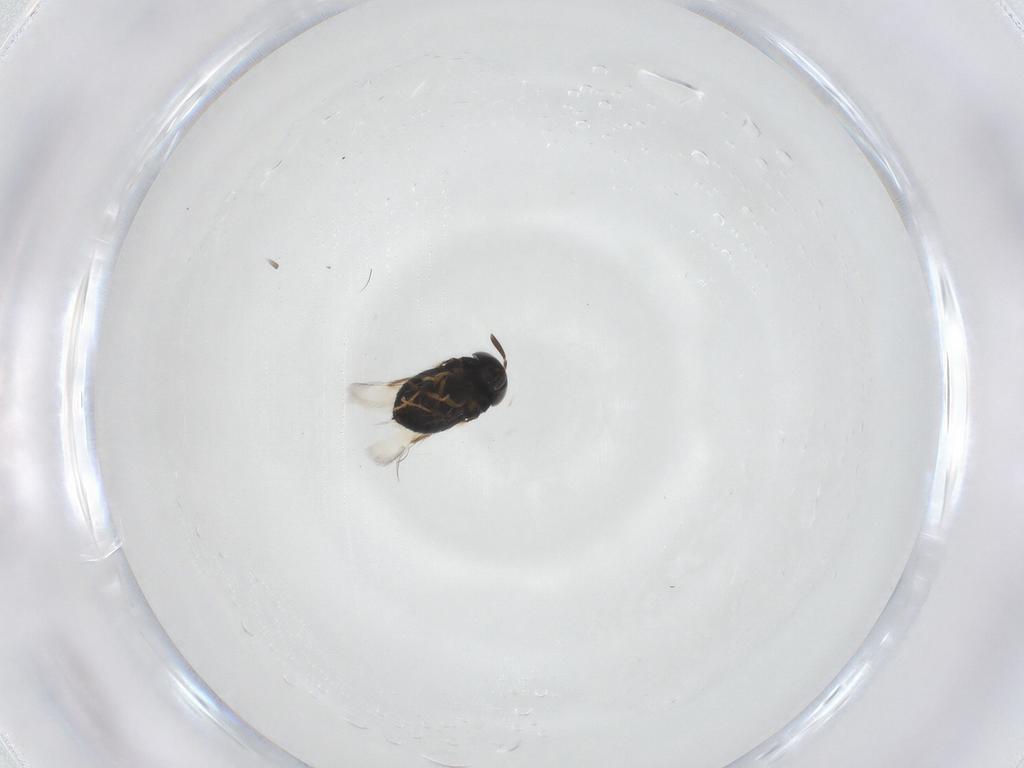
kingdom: Animalia
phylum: Arthropoda
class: Insecta
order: Hymenoptera
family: Signiphoridae
